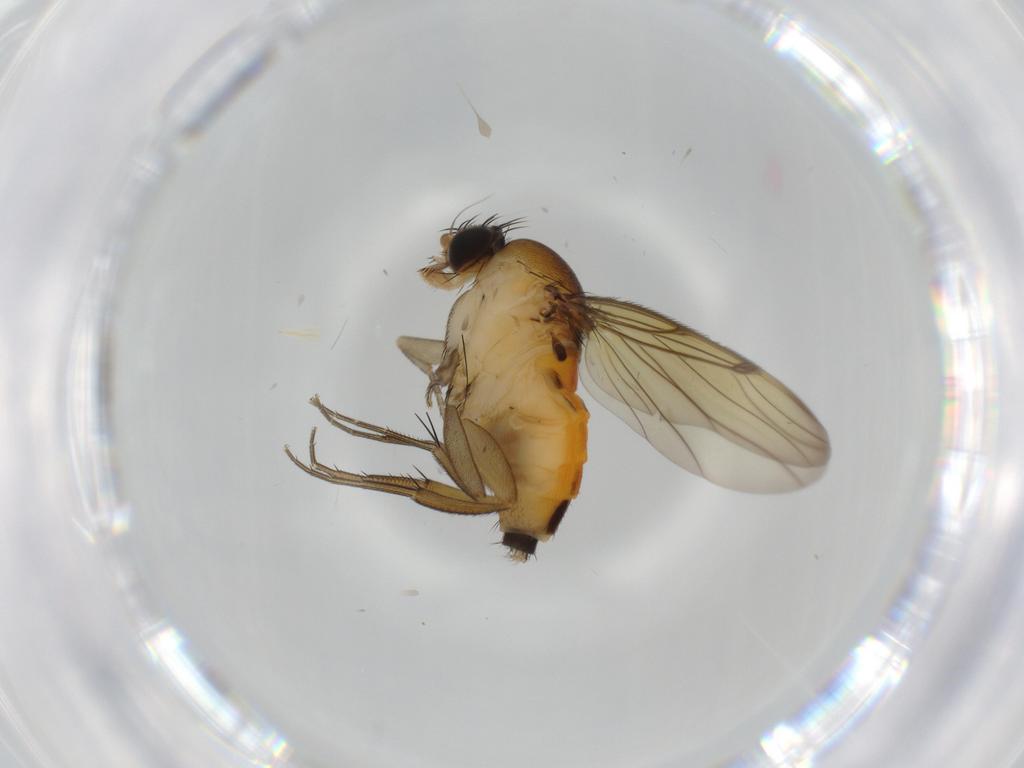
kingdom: Animalia
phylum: Arthropoda
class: Insecta
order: Diptera
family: Phoridae
